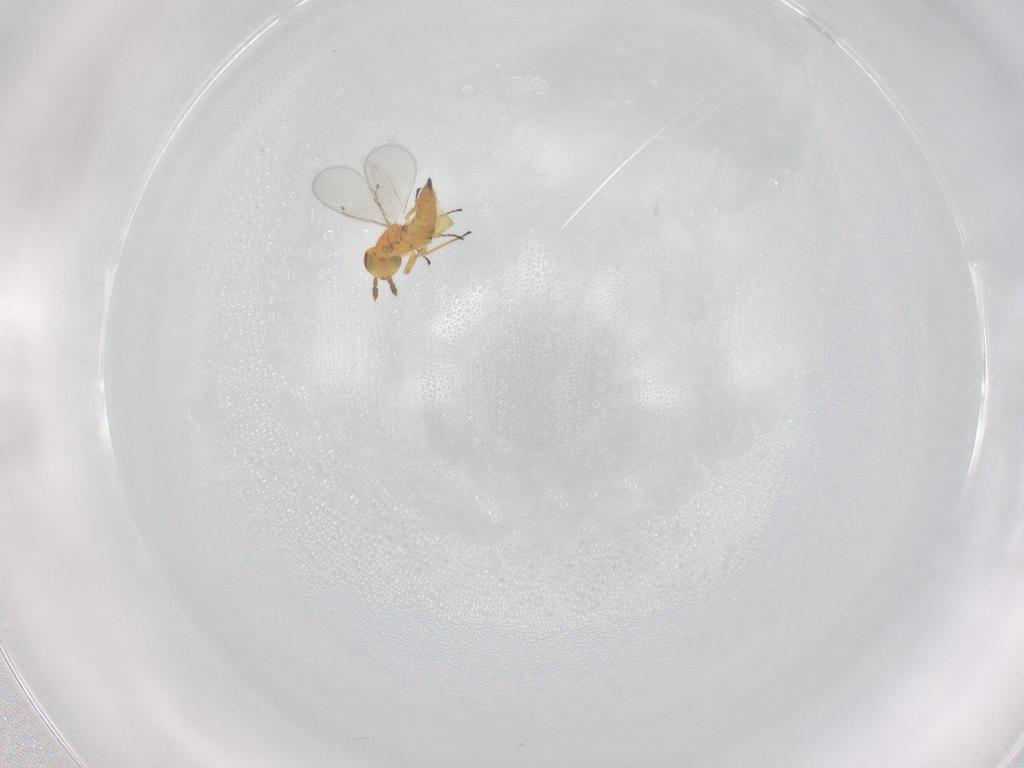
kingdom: Animalia
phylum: Arthropoda
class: Insecta
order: Hymenoptera
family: Eulophidae
